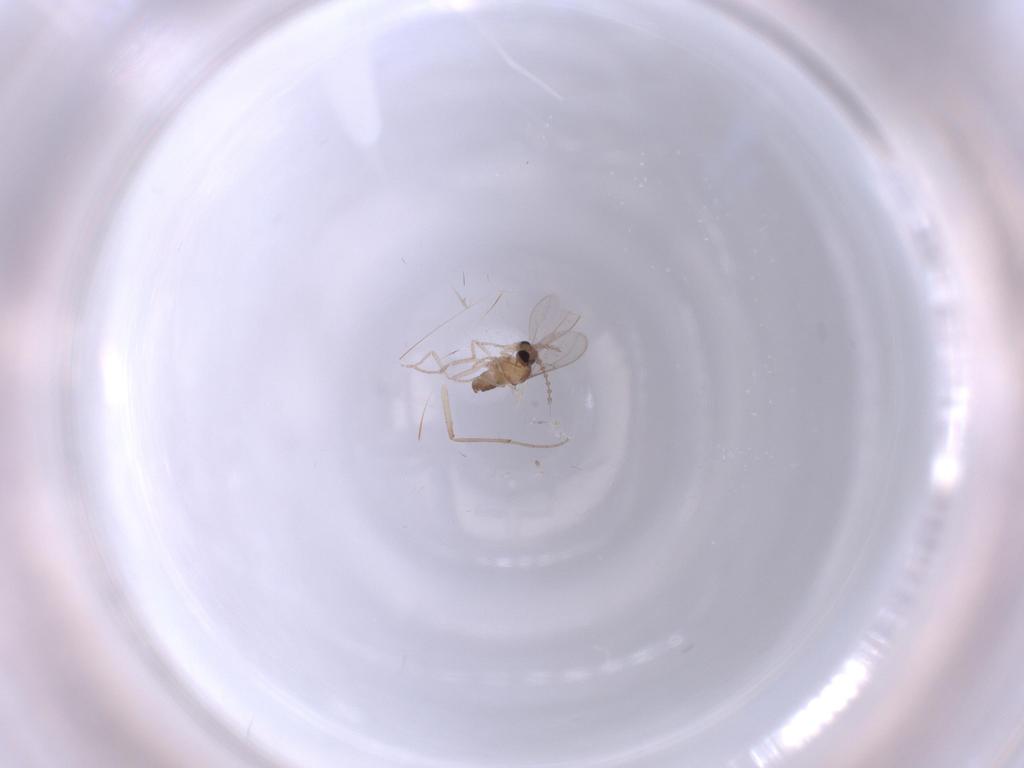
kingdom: Animalia
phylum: Arthropoda
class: Insecta
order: Diptera
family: Cecidomyiidae
